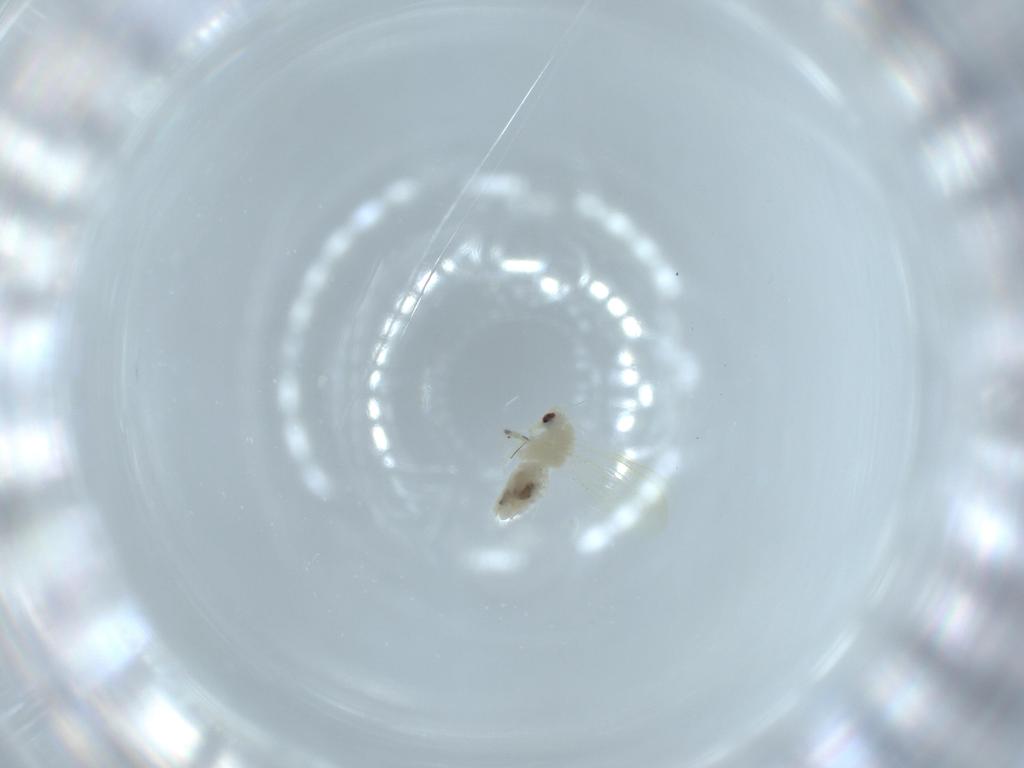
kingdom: Animalia
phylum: Arthropoda
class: Insecta
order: Hemiptera
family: Aleyrodidae
